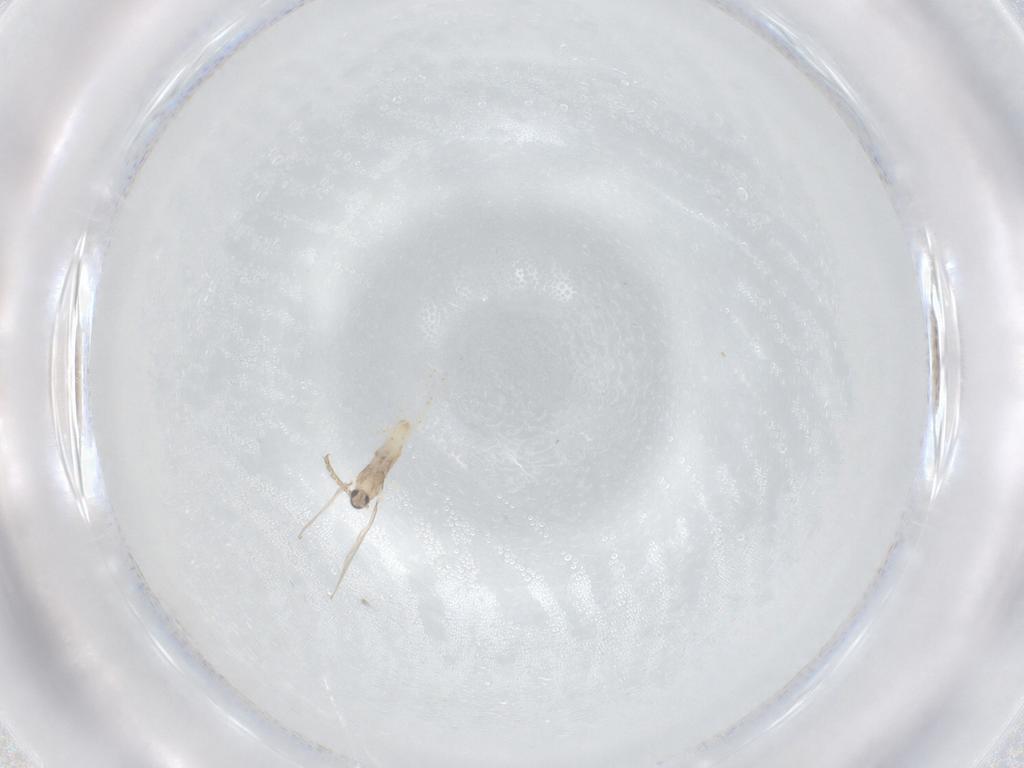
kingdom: Animalia
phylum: Arthropoda
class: Insecta
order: Diptera
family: Cecidomyiidae
